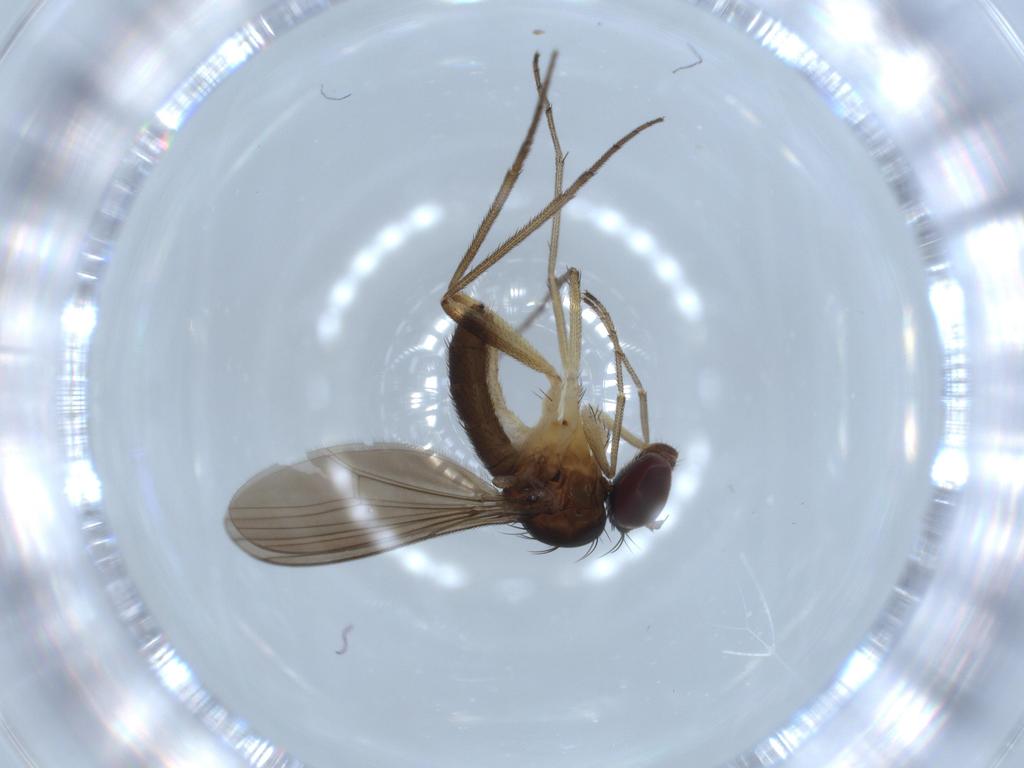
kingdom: Animalia
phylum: Arthropoda
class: Insecta
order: Diptera
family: Dolichopodidae
